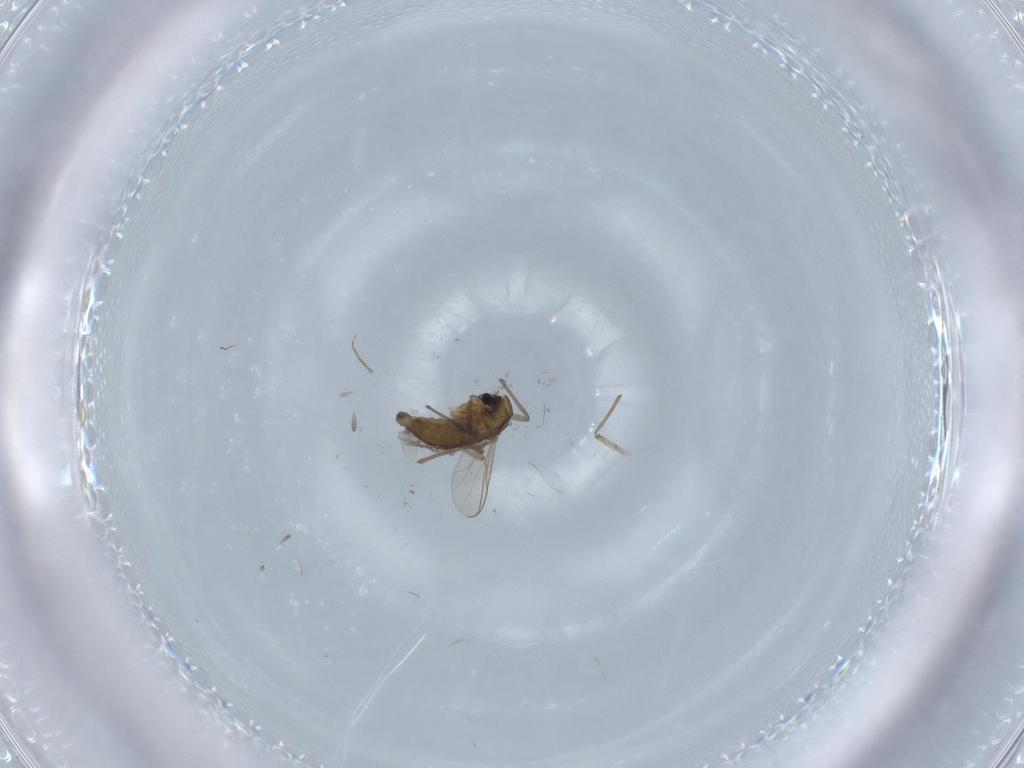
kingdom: Animalia
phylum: Arthropoda
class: Insecta
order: Diptera
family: Chironomidae
